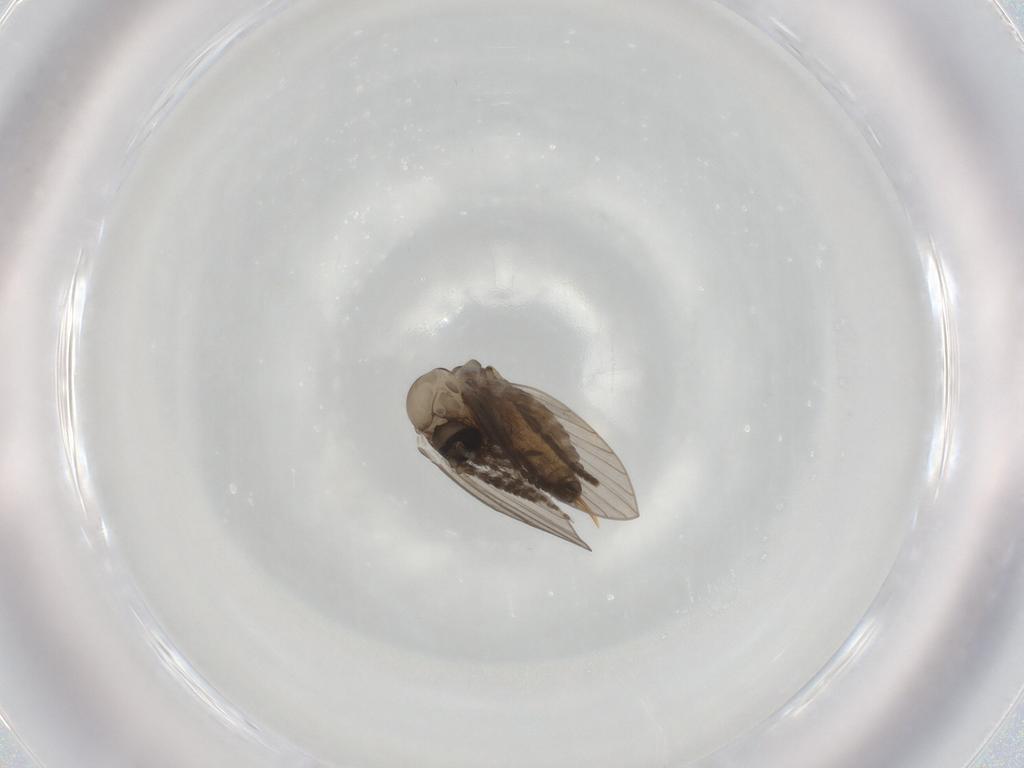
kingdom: Animalia
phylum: Arthropoda
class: Insecta
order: Diptera
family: Psychodidae
